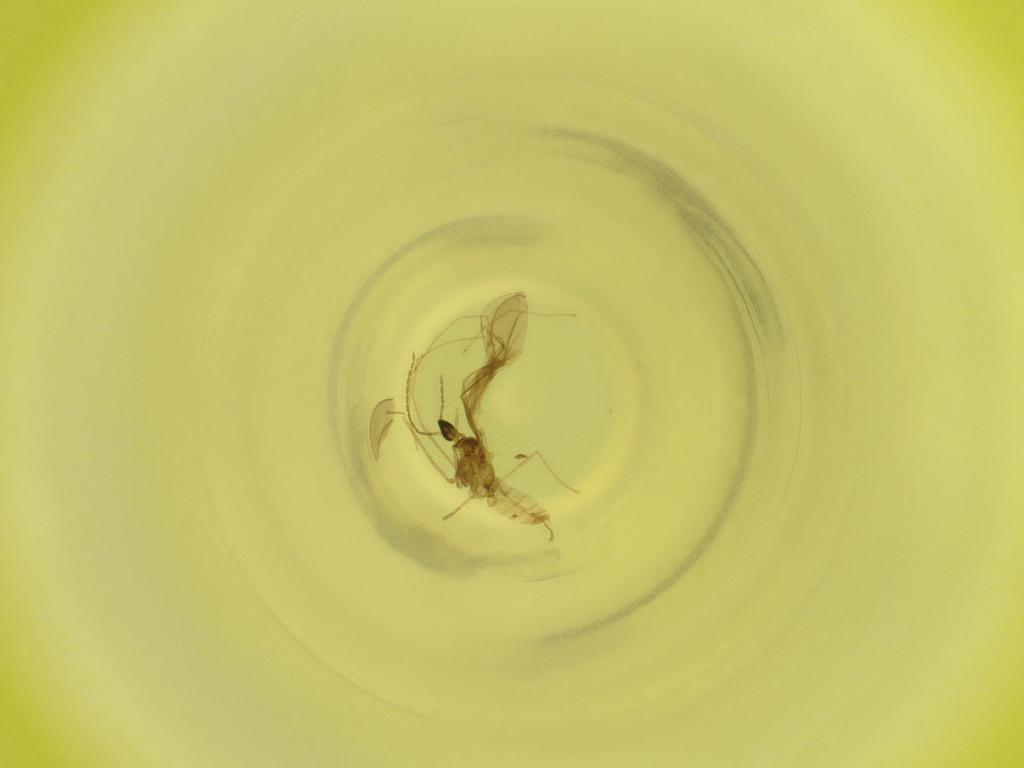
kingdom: Animalia
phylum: Arthropoda
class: Insecta
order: Diptera
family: Cecidomyiidae
